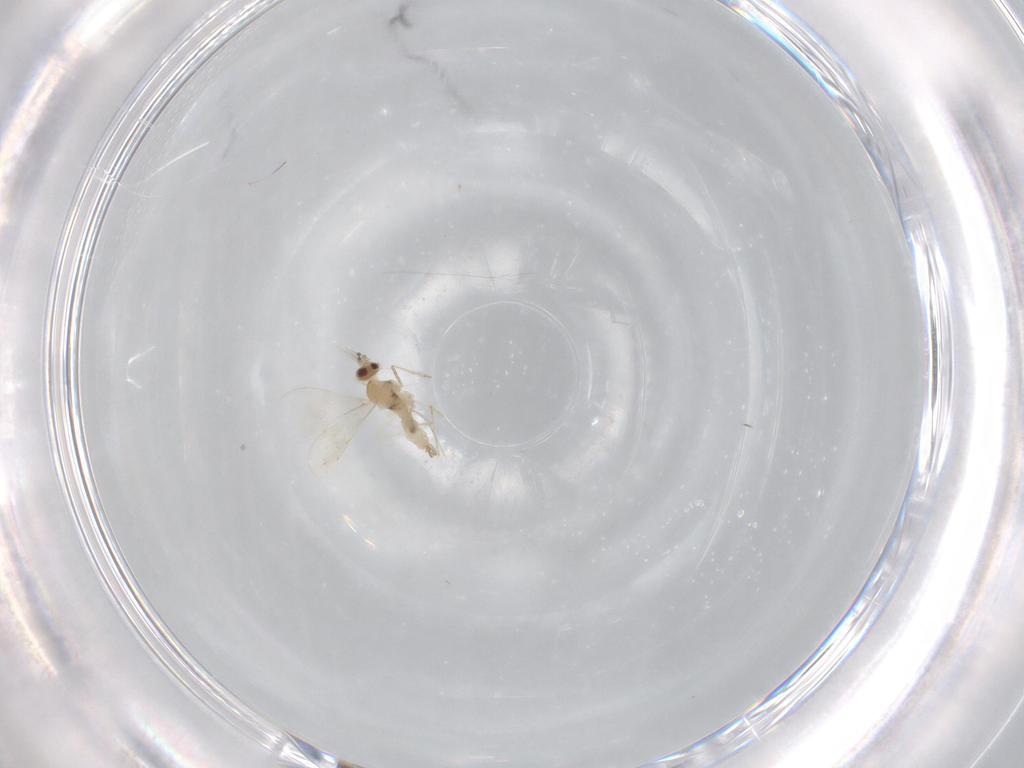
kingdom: Animalia
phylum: Arthropoda
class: Insecta
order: Diptera
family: Cecidomyiidae
